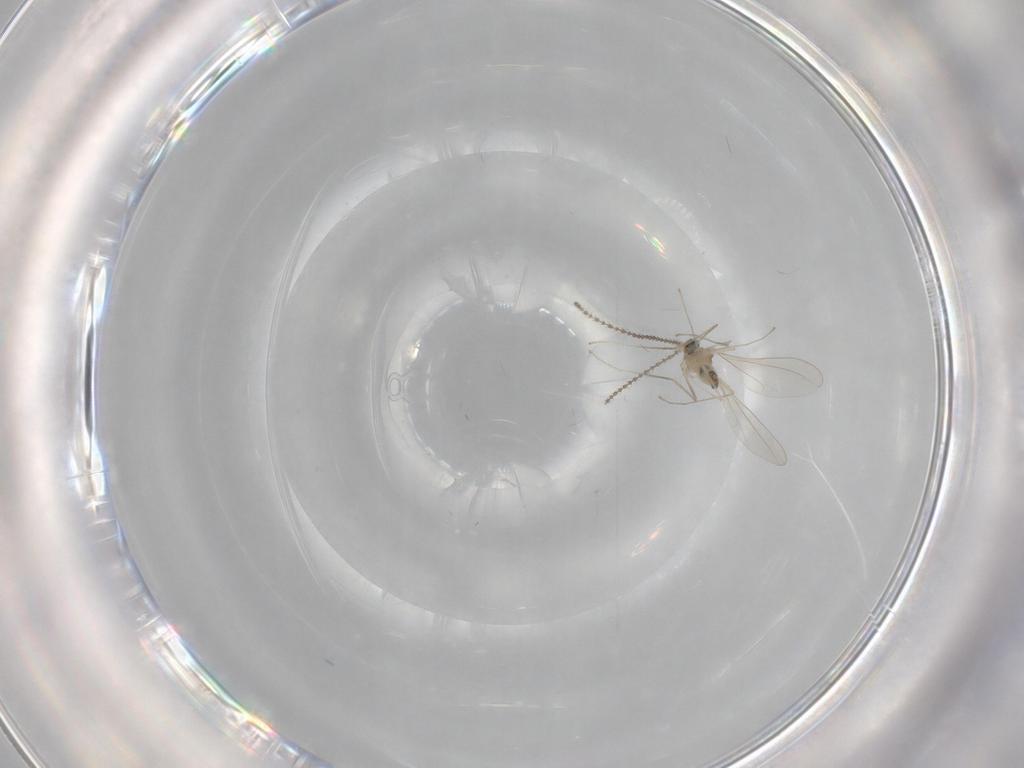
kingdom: Animalia
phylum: Arthropoda
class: Insecta
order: Diptera
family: Cecidomyiidae
